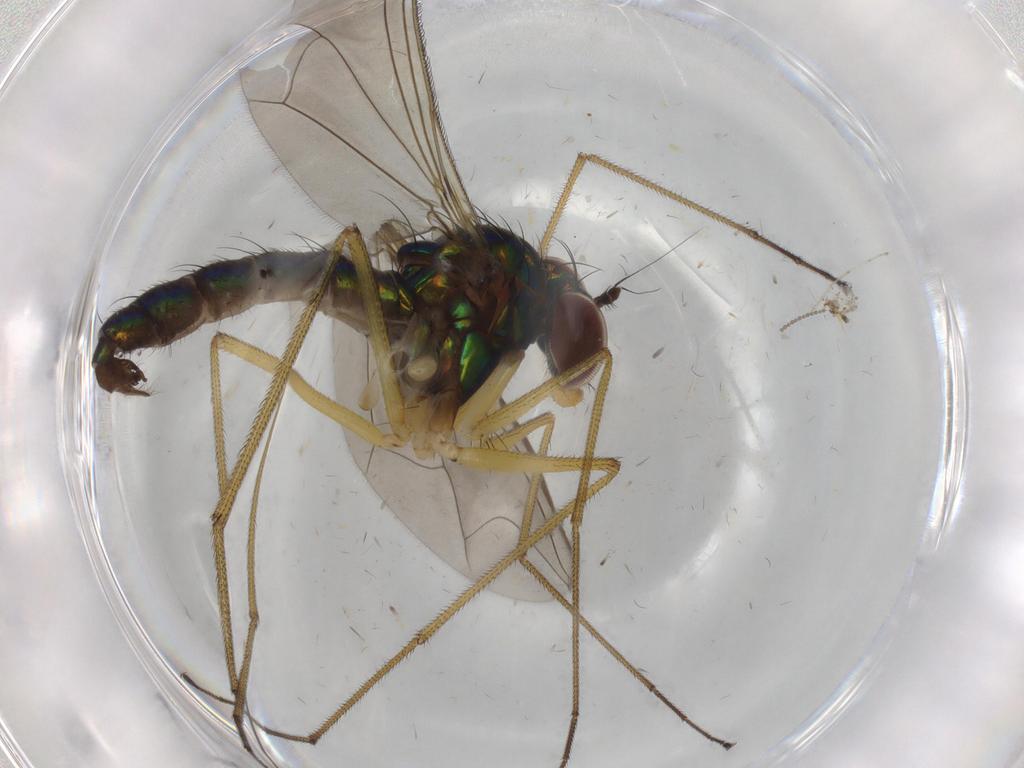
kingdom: Animalia
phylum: Arthropoda
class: Insecta
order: Diptera
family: Dolichopodidae
